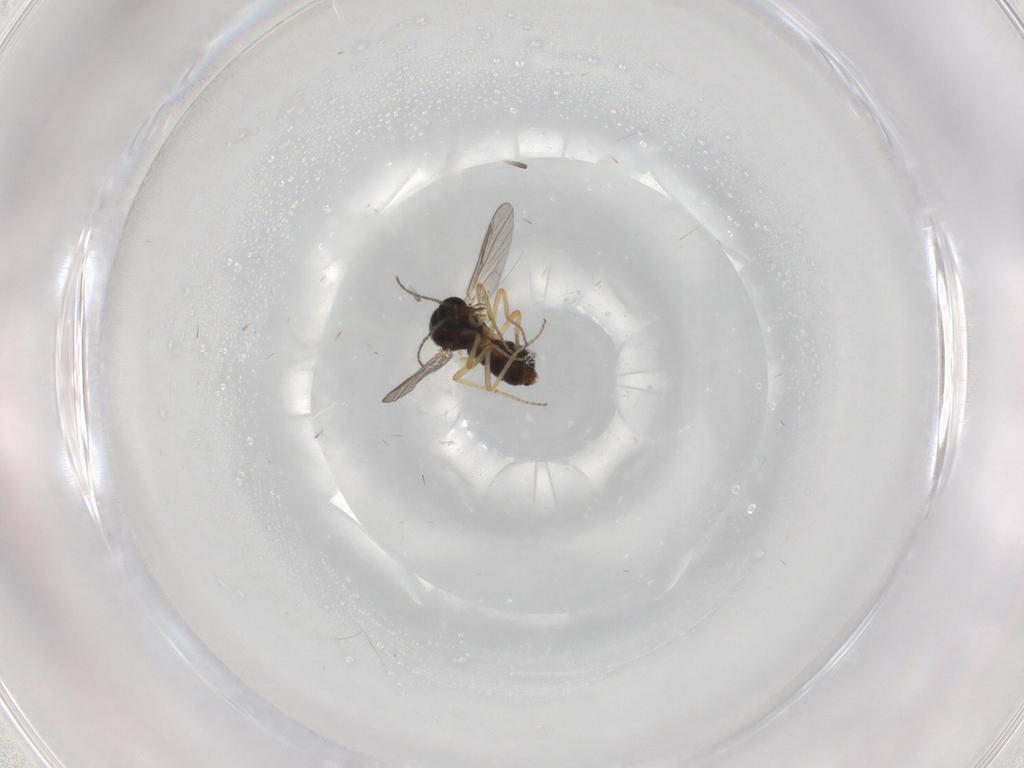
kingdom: Animalia
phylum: Arthropoda
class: Insecta
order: Diptera
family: Ceratopogonidae
